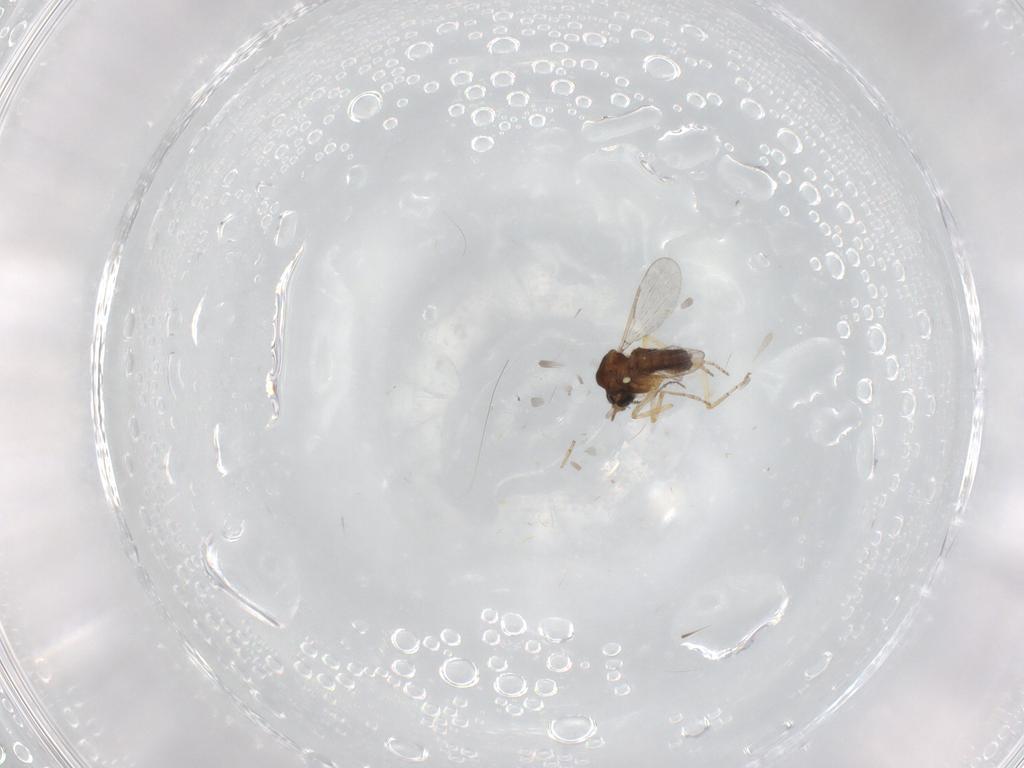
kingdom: Animalia
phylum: Arthropoda
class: Insecta
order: Diptera
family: Ceratopogonidae
